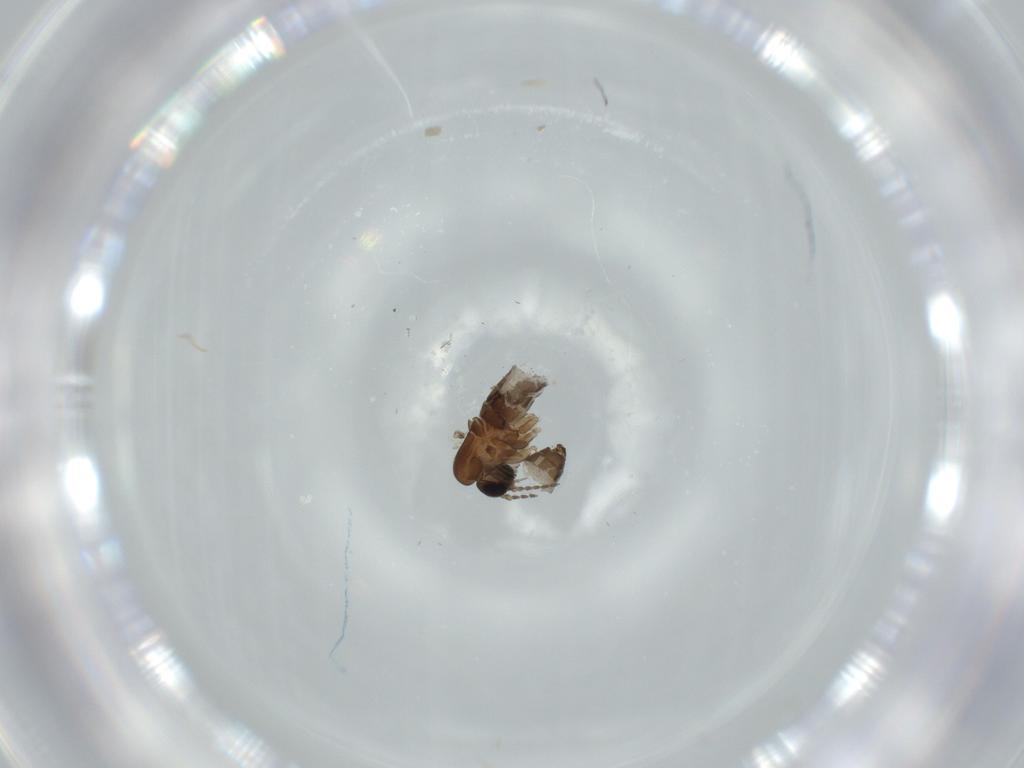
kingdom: Animalia
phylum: Arthropoda
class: Insecta
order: Diptera
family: Psychodidae
